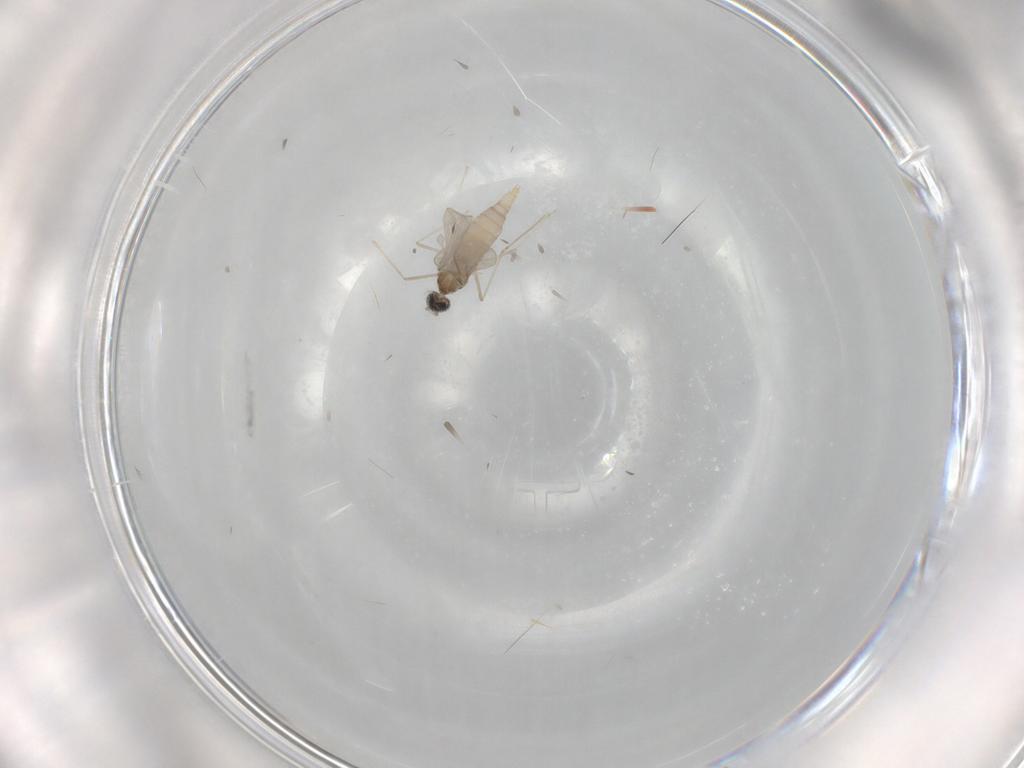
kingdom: Animalia
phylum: Arthropoda
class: Insecta
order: Diptera
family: Cecidomyiidae
